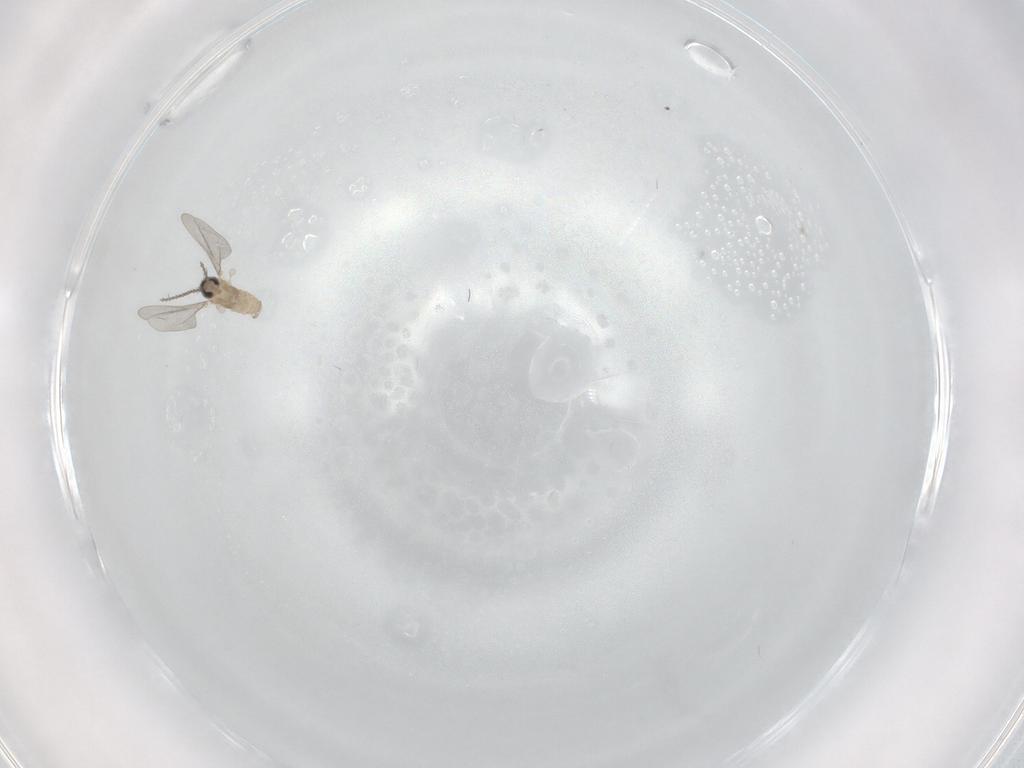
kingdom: Animalia
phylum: Arthropoda
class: Insecta
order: Diptera
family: Cecidomyiidae
